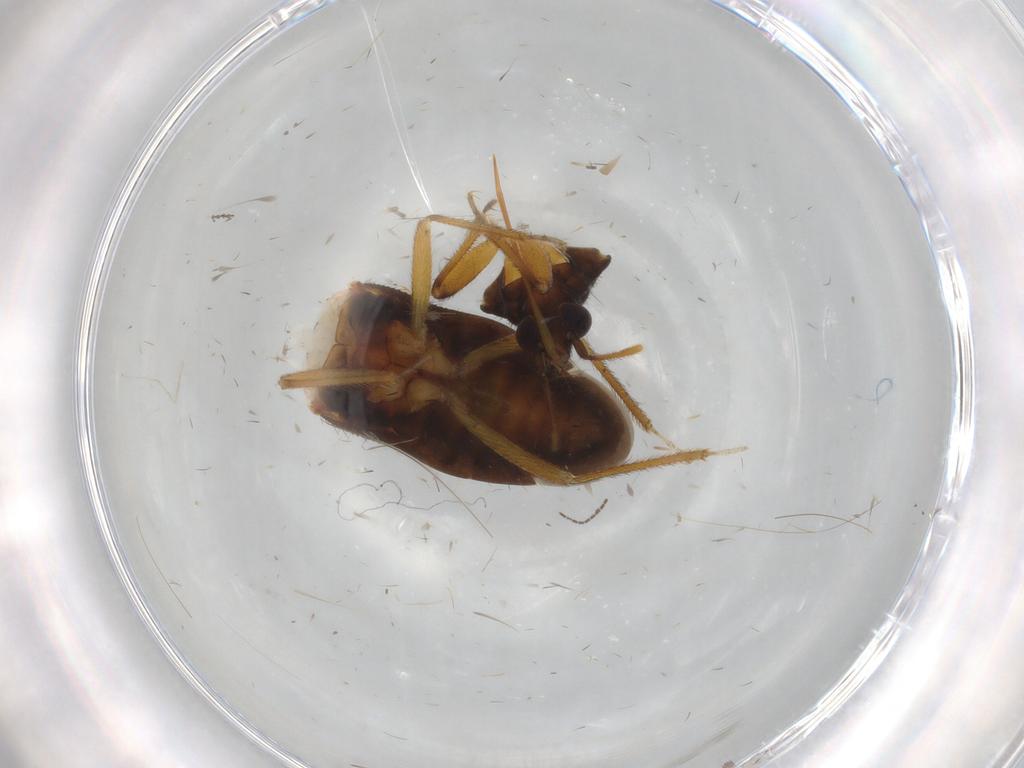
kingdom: Animalia
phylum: Arthropoda
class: Insecta
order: Hemiptera
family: Anthocoridae
